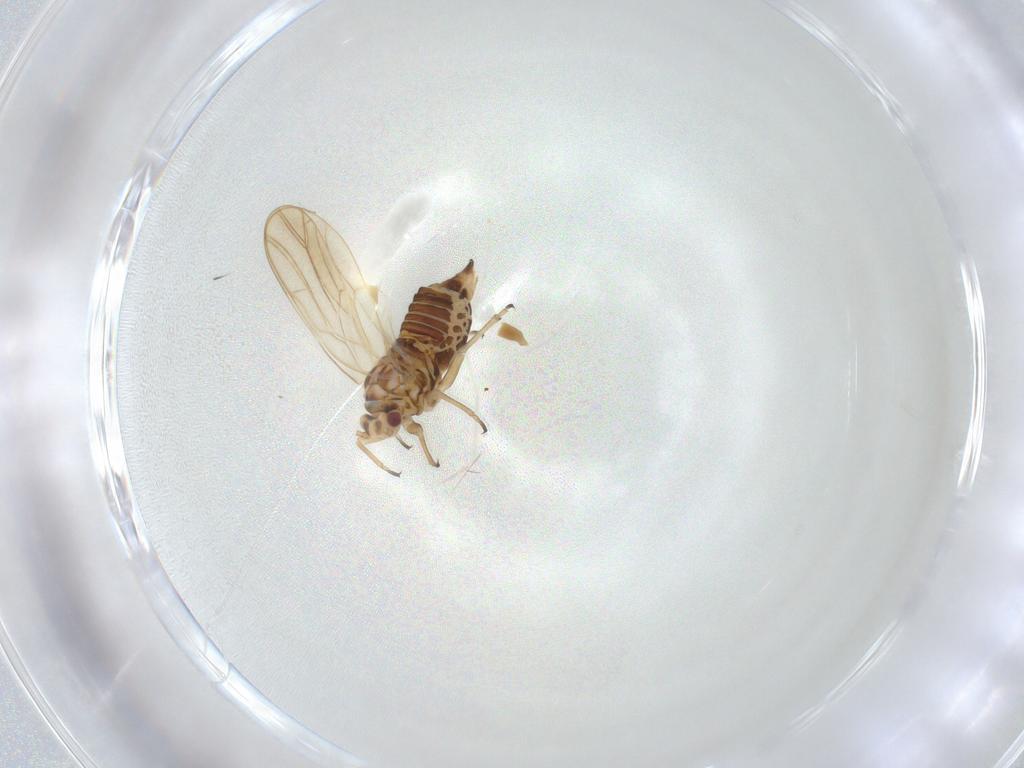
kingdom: Animalia
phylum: Arthropoda
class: Insecta
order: Hemiptera
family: Psylloidea_incertae_sedis
